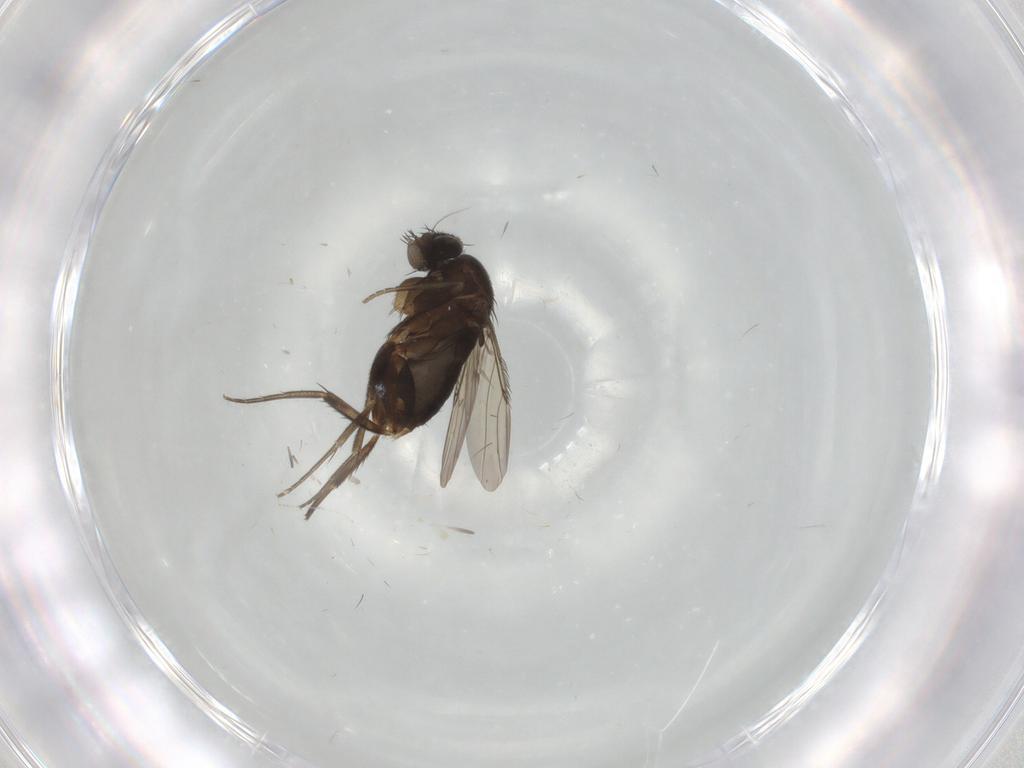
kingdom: Animalia
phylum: Arthropoda
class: Insecta
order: Diptera
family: Phoridae
